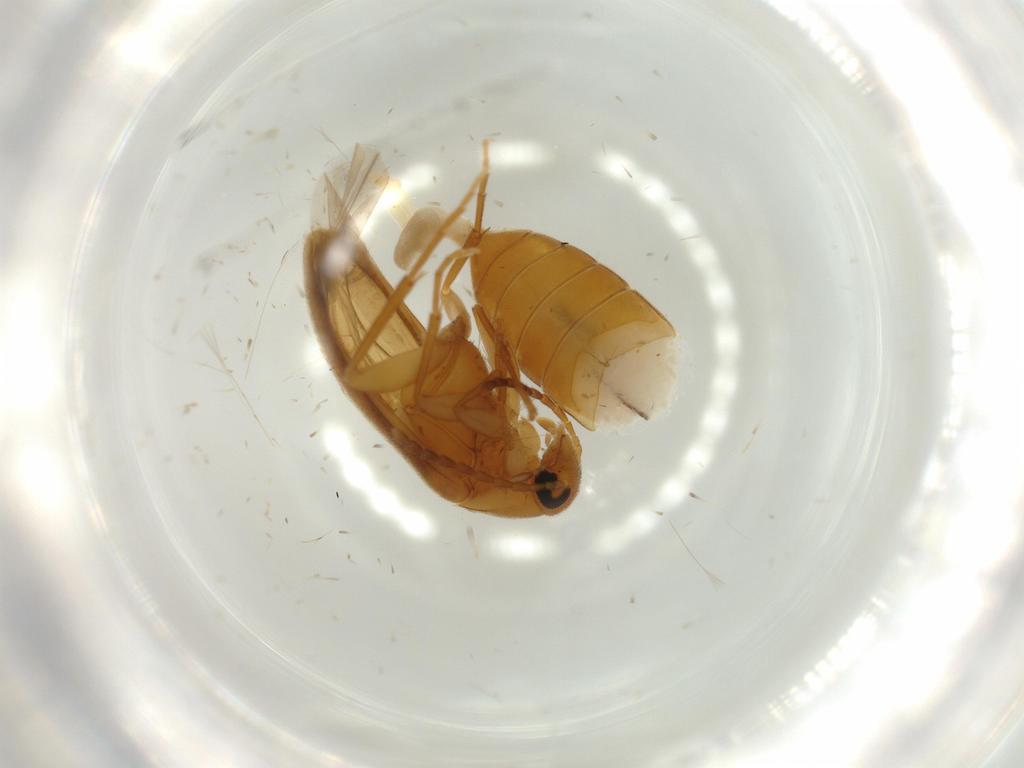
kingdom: Animalia
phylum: Arthropoda
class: Insecta
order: Coleoptera
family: Scraptiidae
